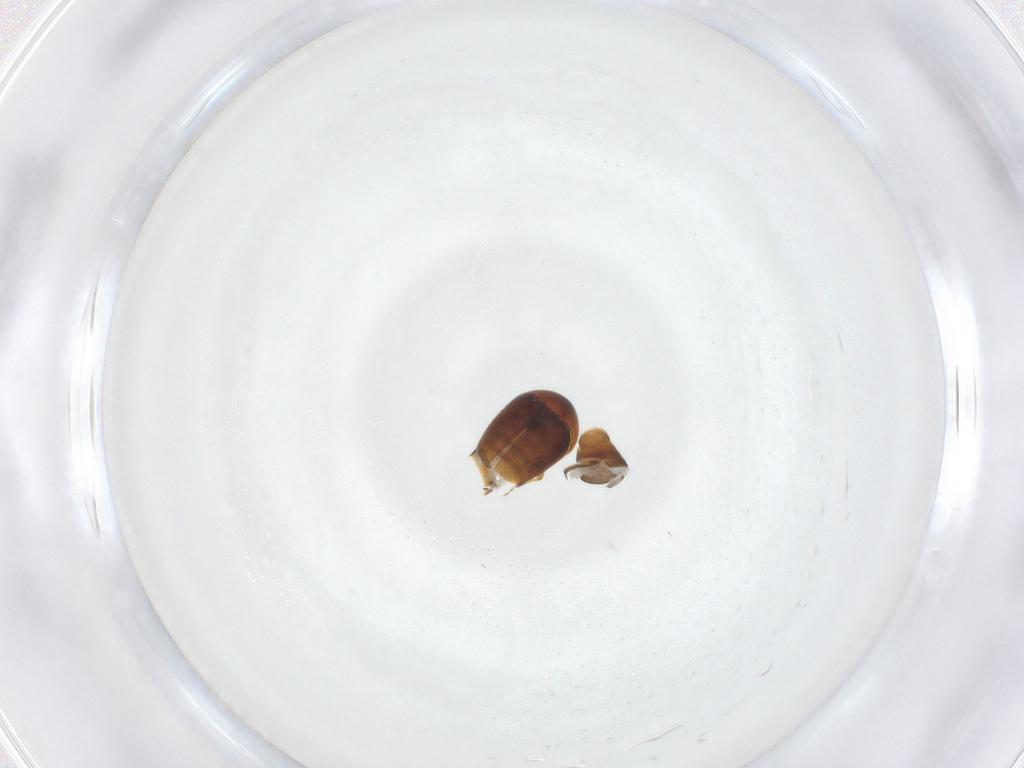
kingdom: Animalia
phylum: Arthropoda
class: Insecta
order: Coleoptera
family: Corylophidae
